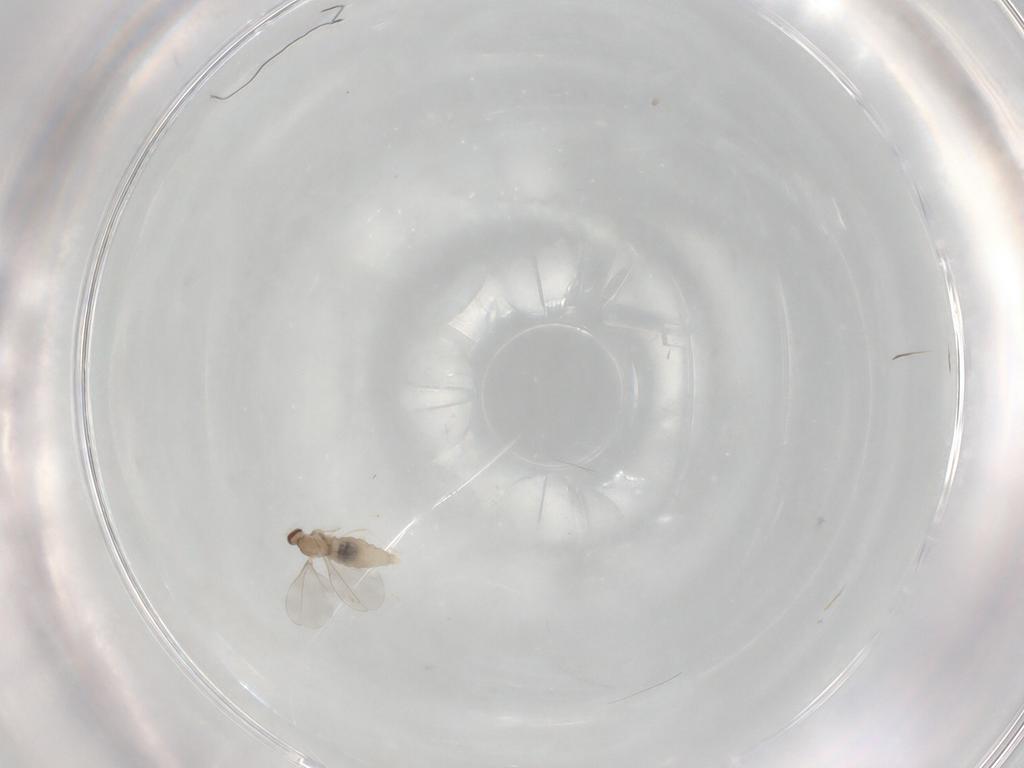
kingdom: Animalia
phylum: Arthropoda
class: Insecta
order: Diptera
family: Cecidomyiidae
